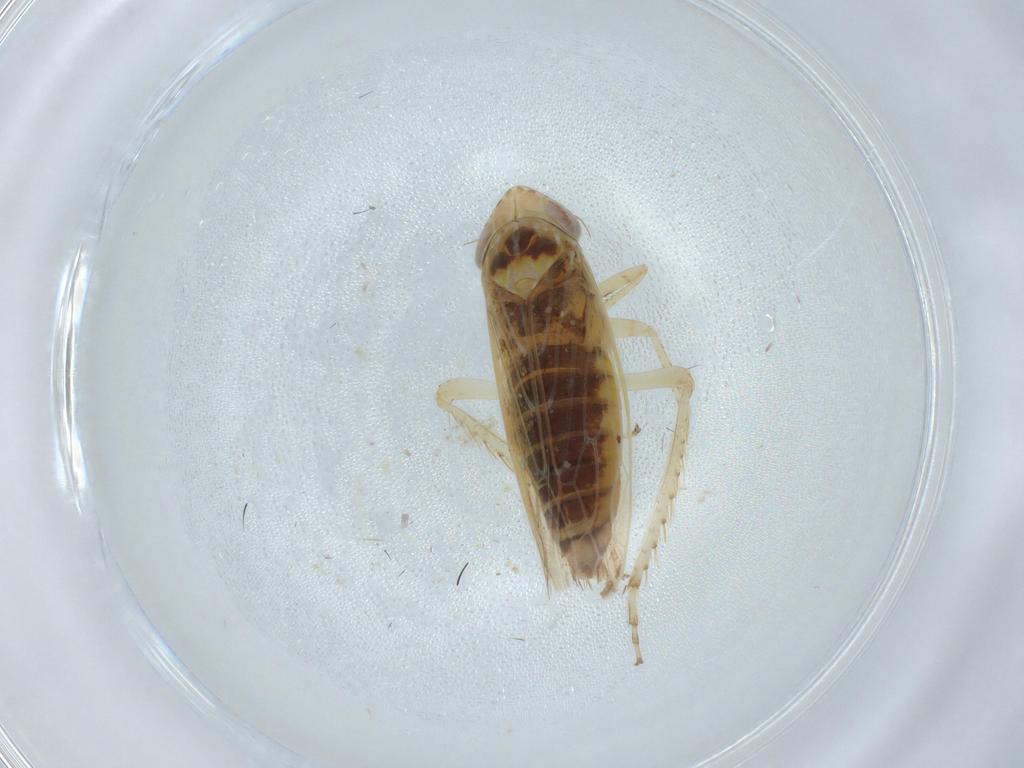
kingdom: Animalia
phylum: Arthropoda
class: Insecta
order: Hemiptera
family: Cicadellidae
